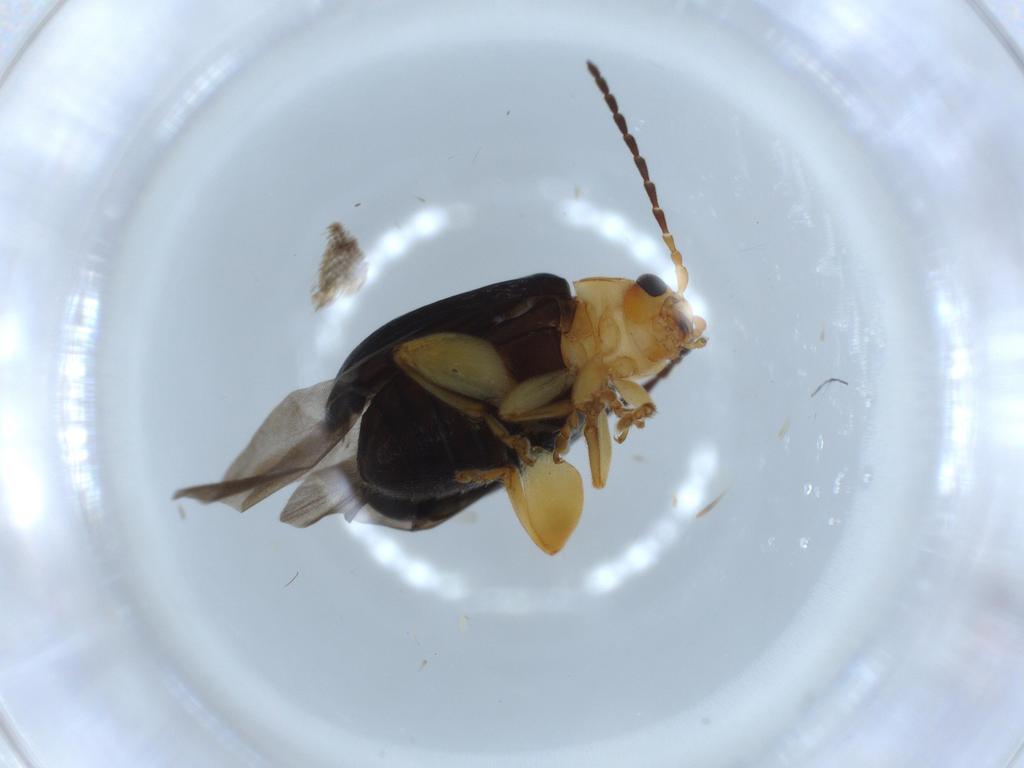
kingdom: Animalia
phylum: Arthropoda
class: Insecta
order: Coleoptera
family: Chrysomelidae
